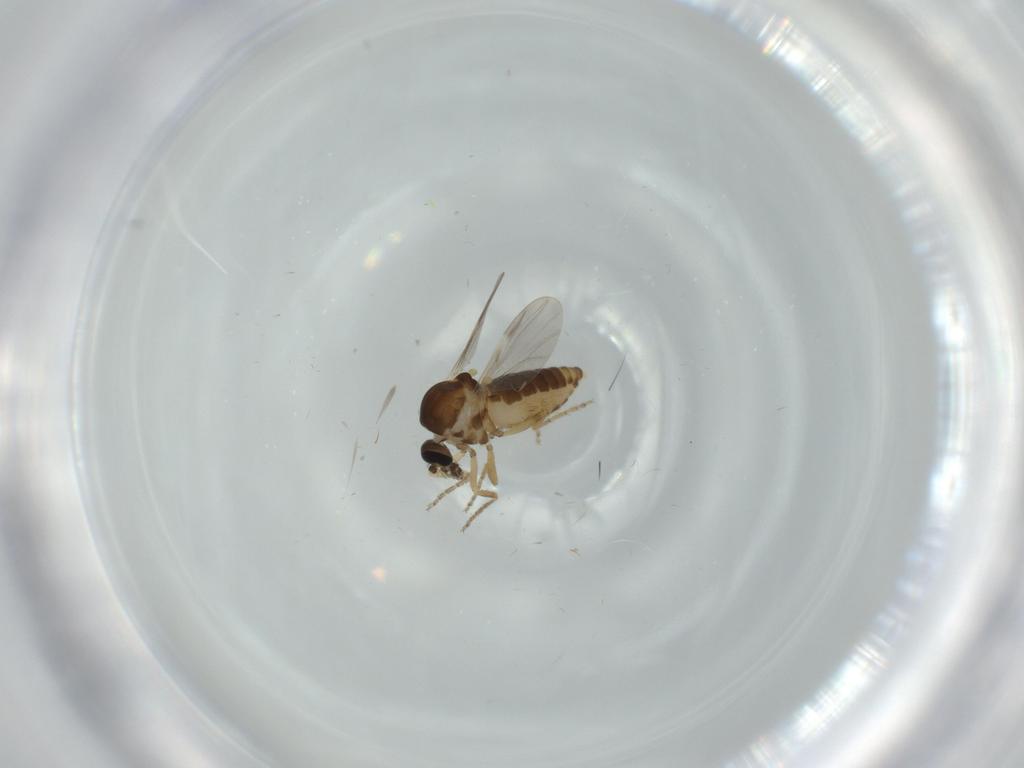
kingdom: Animalia
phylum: Arthropoda
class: Insecta
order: Diptera
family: Ceratopogonidae
